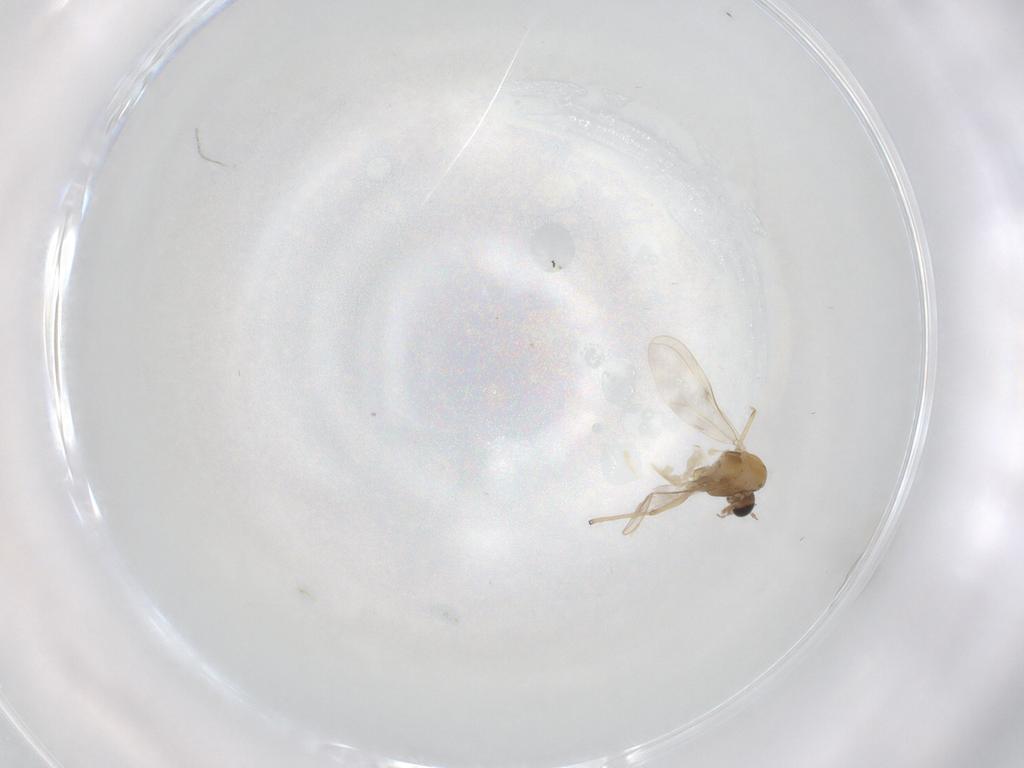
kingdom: Animalia
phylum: Arthropoda
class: Insecta
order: Diptera
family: Chironomidae
